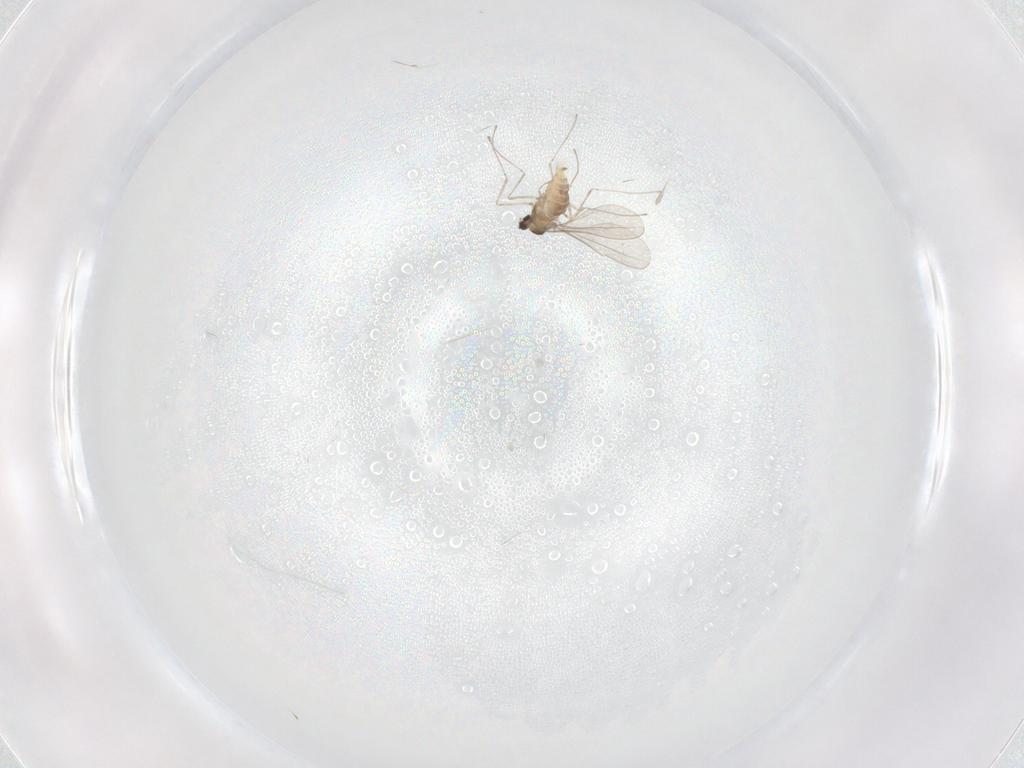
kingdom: Animalia
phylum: Arthropoda
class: Insecta
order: Diptera
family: Cecidomyiidae
